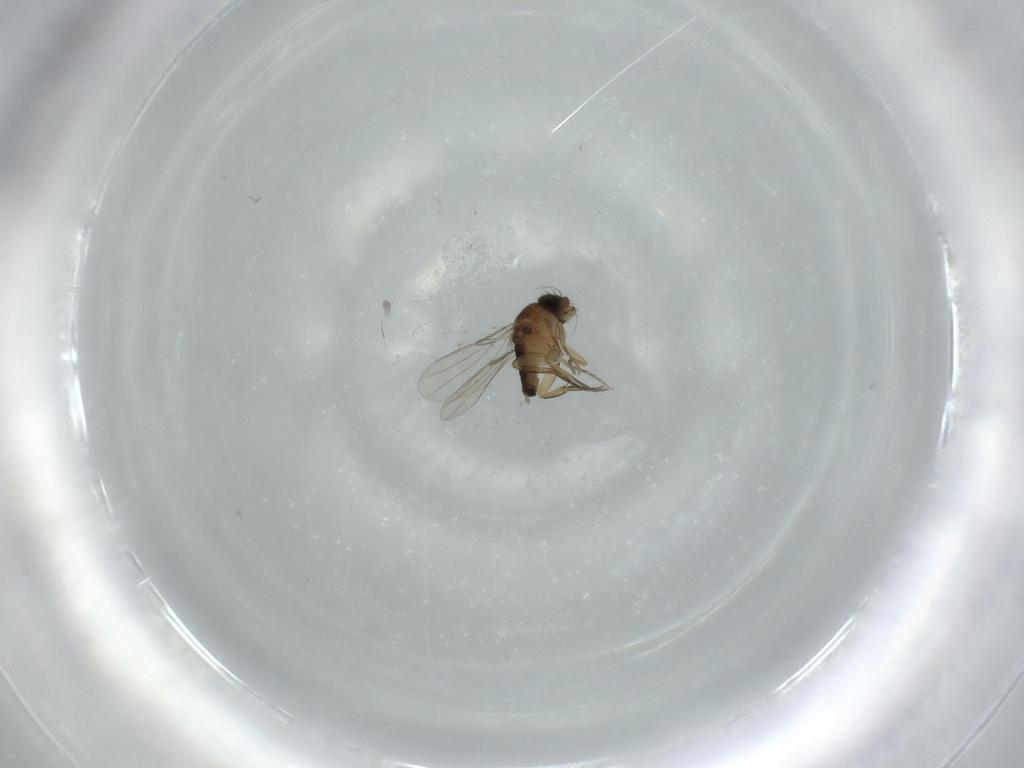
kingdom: Animalia
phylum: Arthropoda
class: Insecta
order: Diptera
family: Phoridae
